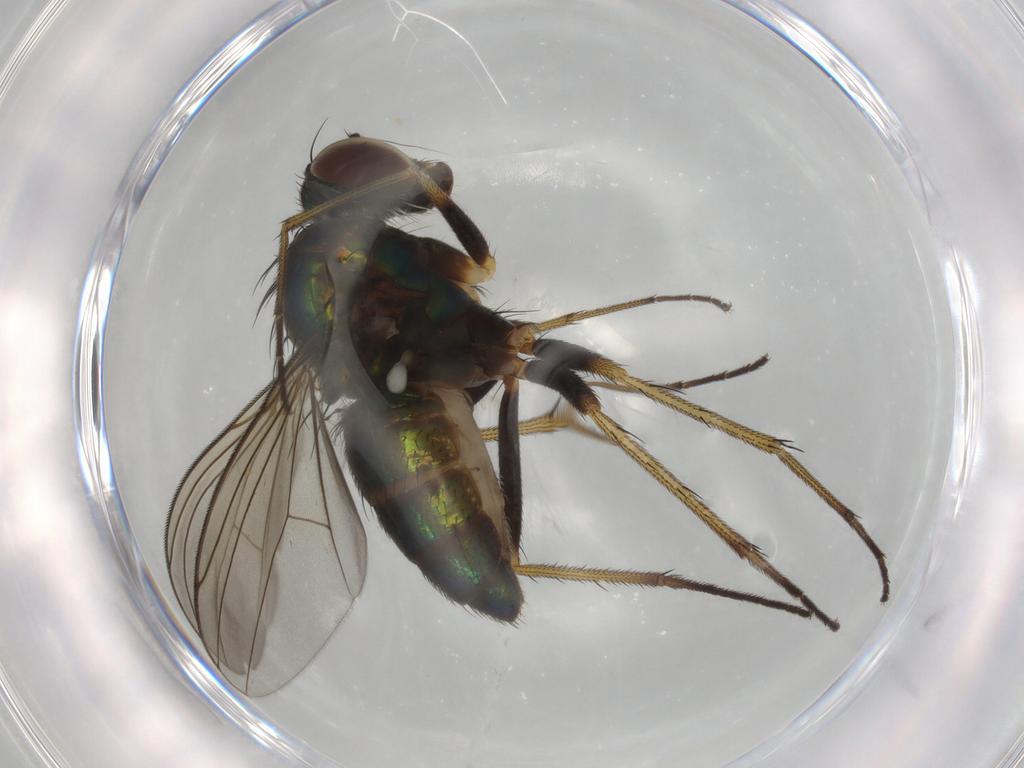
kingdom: Animalia
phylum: Arthropoda
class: Insecta
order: Diptera
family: Dolichopodidae
